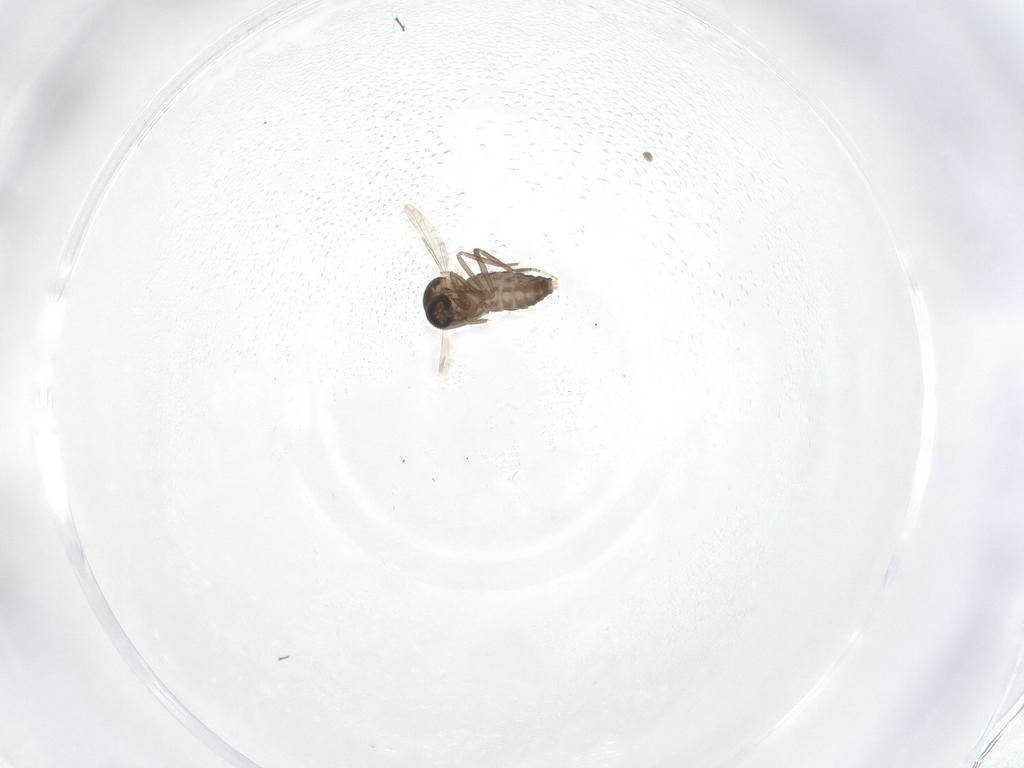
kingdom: Animalia
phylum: Arthropoda
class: Insecta
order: Diptera
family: Ceratopogonidae
